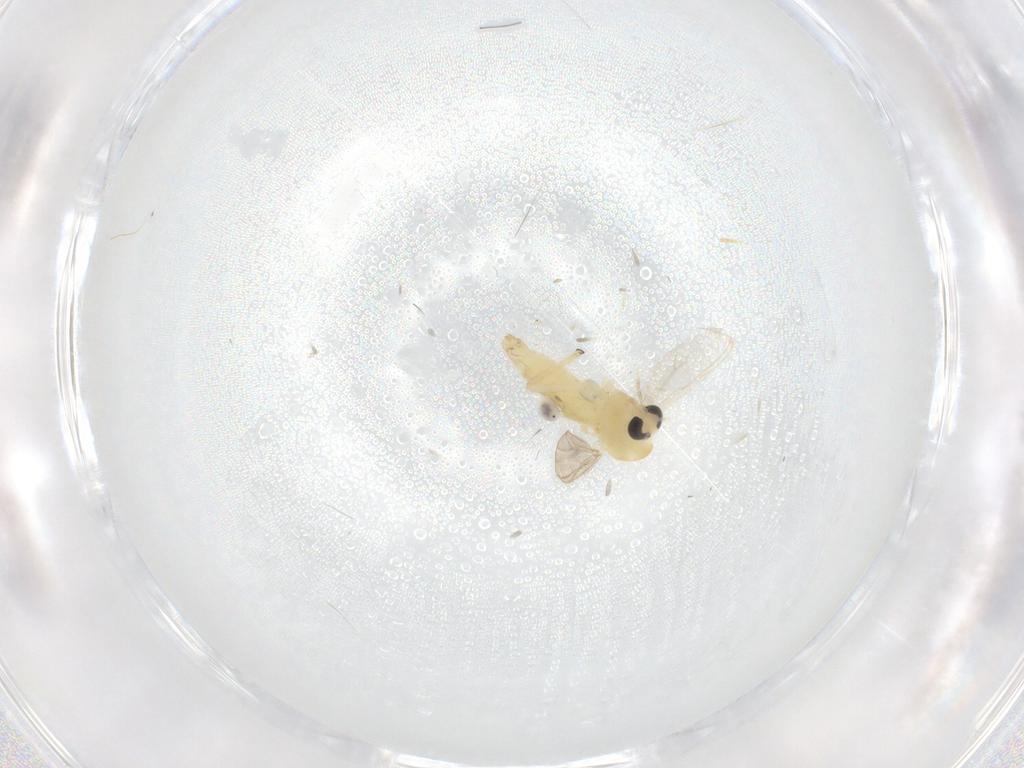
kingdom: Animalia
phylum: Arthropoda
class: Insecta
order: Diptera
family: Chironomidae
